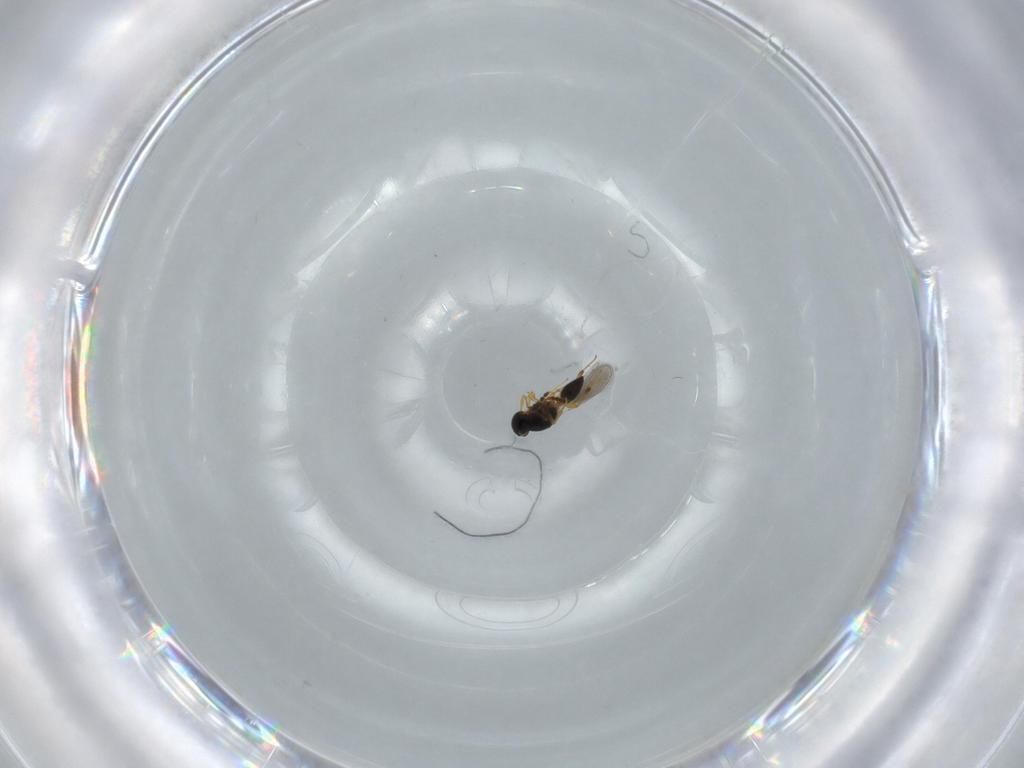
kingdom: Animalia
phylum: Arthropoda
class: Insecta
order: Hymenoptera
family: Platygastridae
